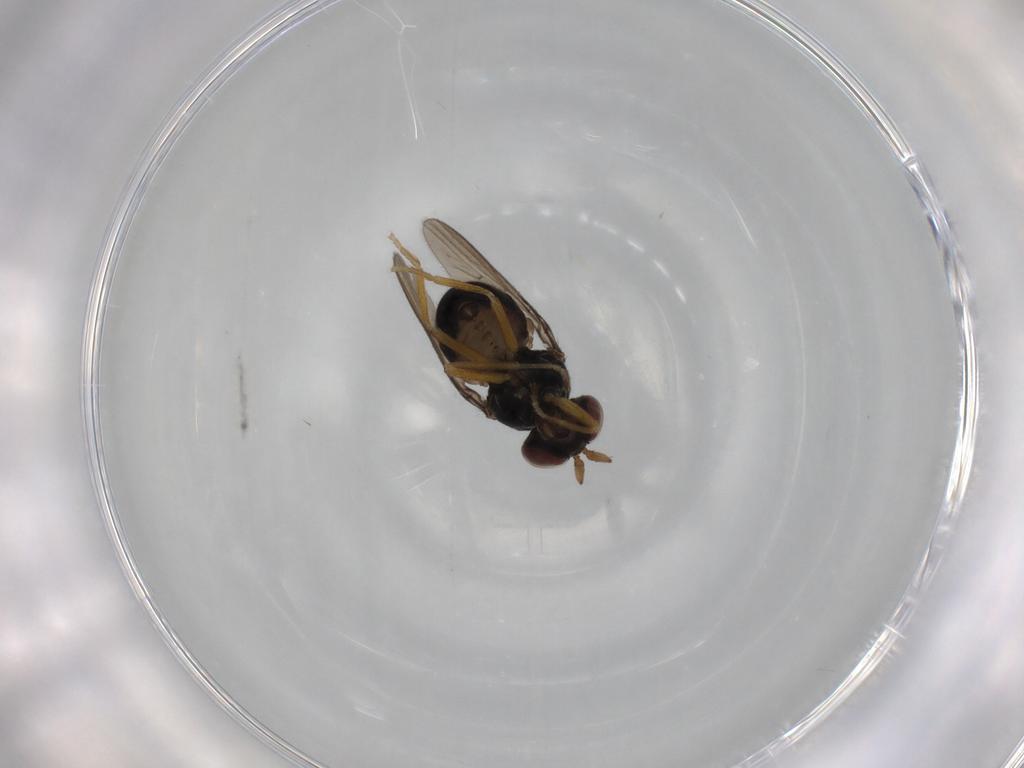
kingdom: Animalia
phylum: Arthropoda
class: Insecta
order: Diptera
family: Ephydridae
